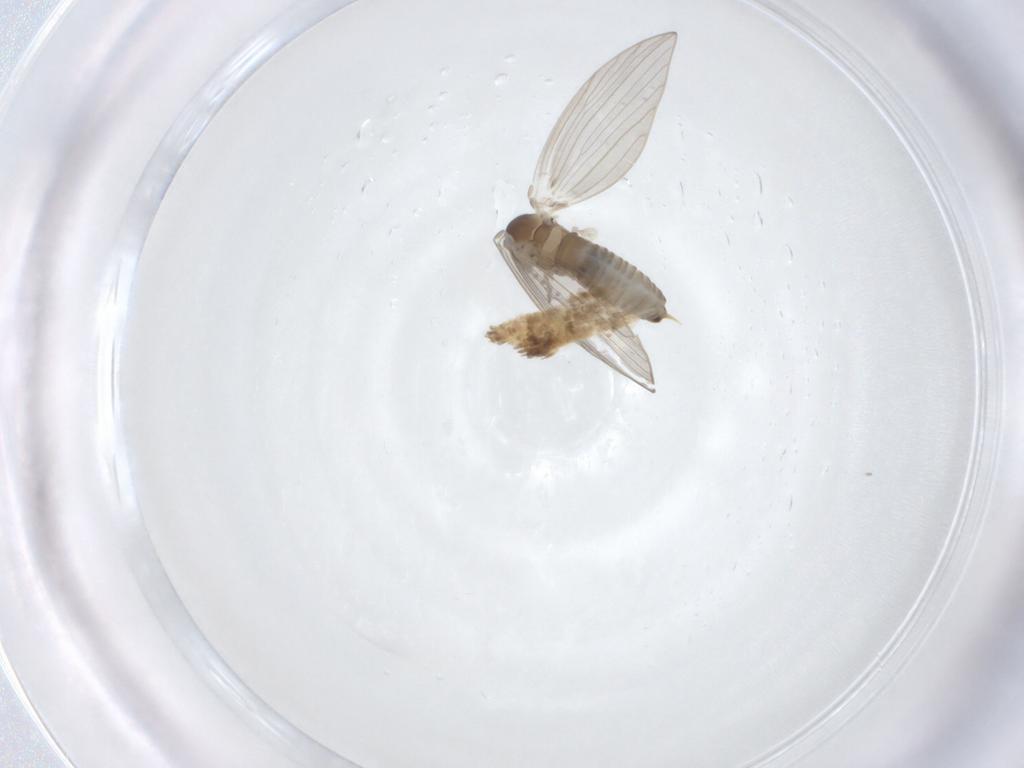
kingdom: Animalia
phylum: Arthropoda
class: Insecta
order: Diptera
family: Psychodidae
